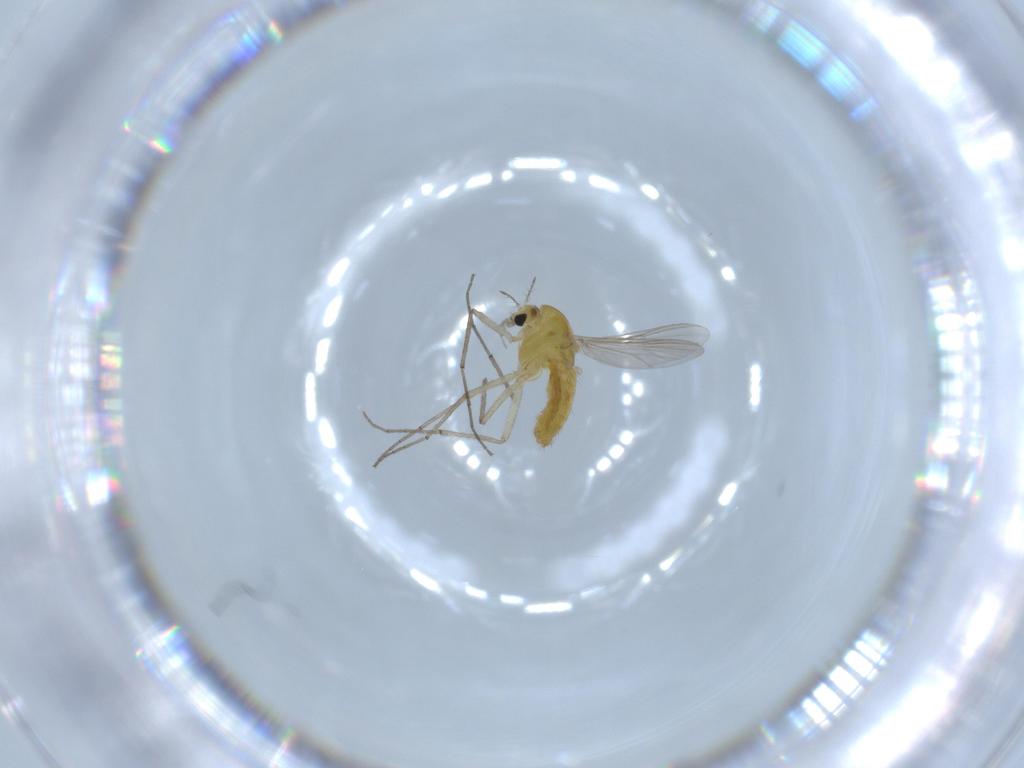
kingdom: Animalia
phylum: Arthropoda
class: Insecta
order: Diptera
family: Chironomidae
